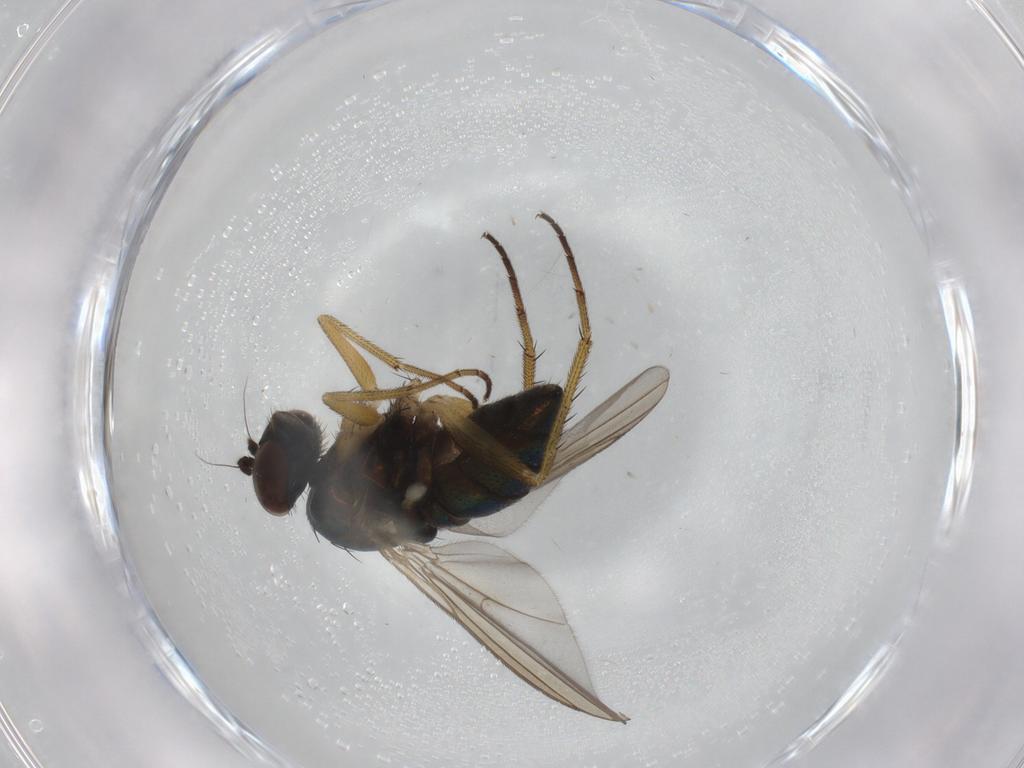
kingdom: Animalia
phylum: Arthropoda
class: Insecta
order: Diptera
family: Dolichopodidae
